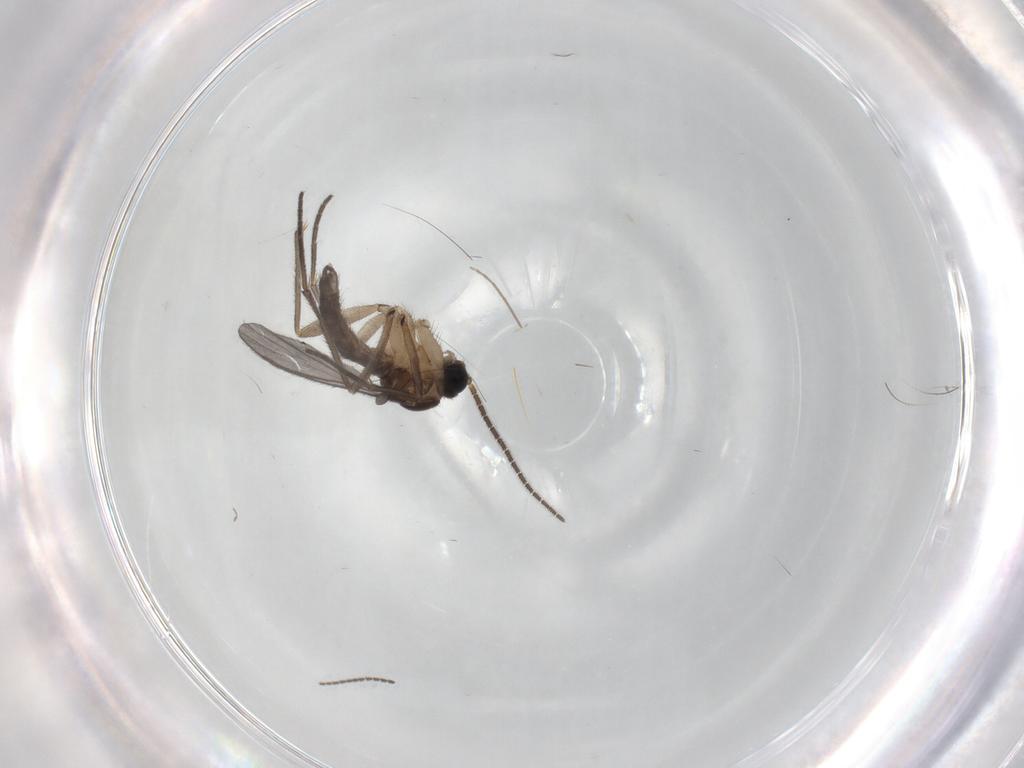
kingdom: Animalia
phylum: Arthropoda
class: Insecta
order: Diptera
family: Sciaridae
